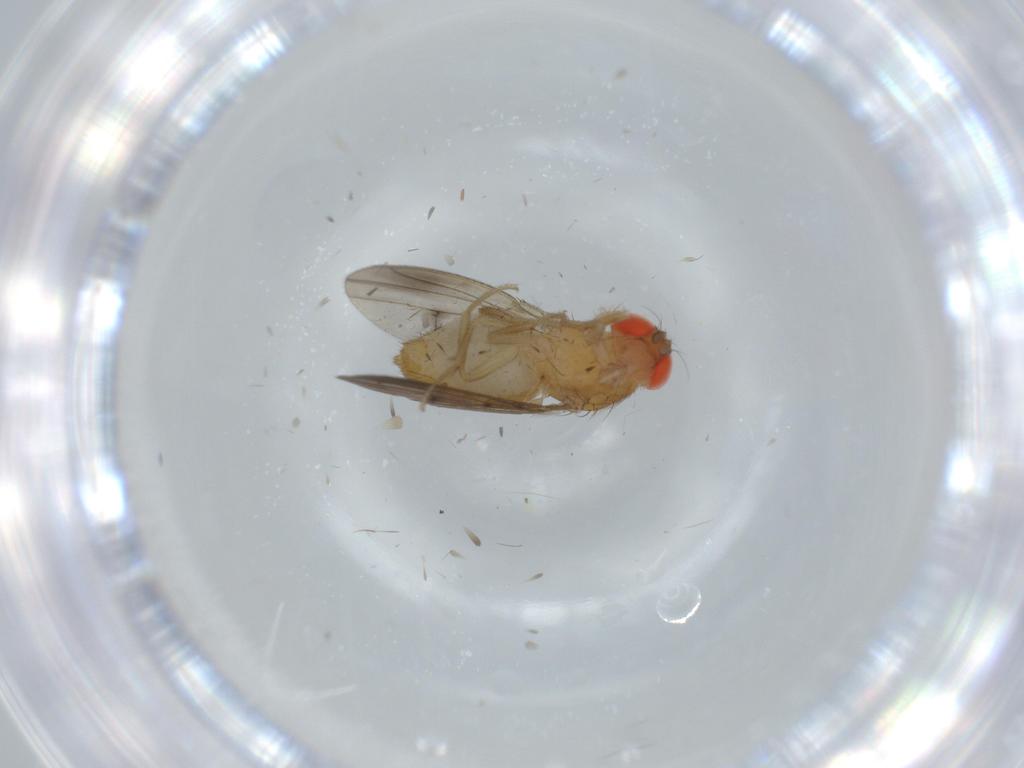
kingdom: Animalia
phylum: Arthropoda
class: Insecta
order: Diptera
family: Drosophilidae
